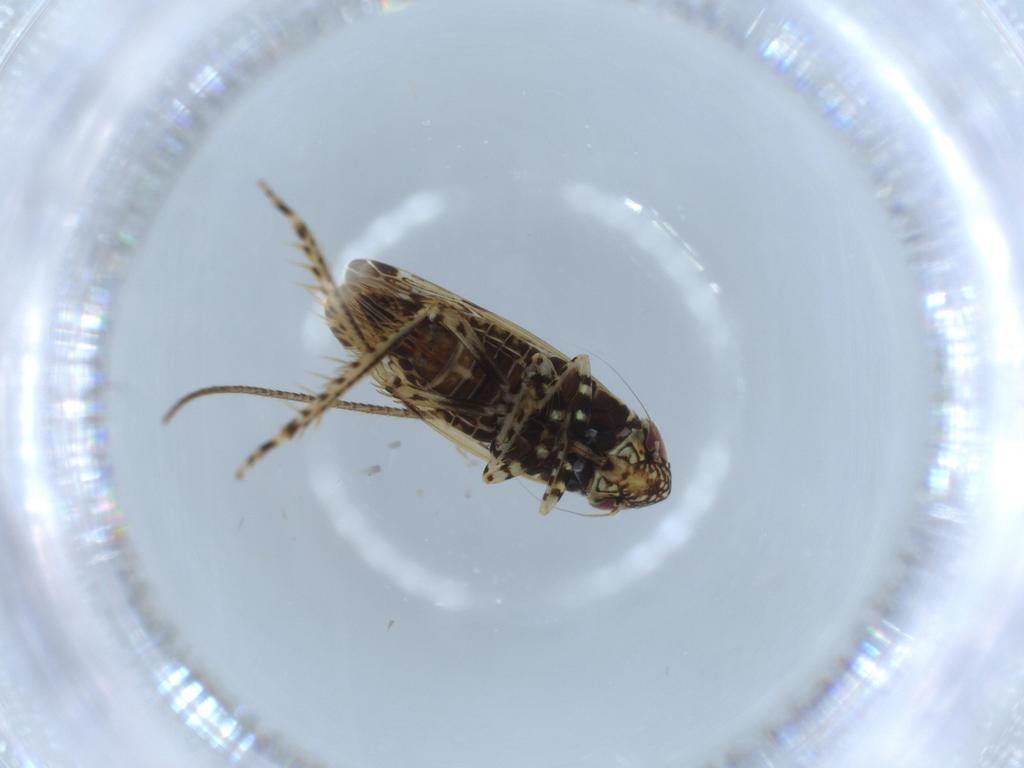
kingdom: Animalia
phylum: Arthropoda
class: Insecta
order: Hemiptera
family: Cicadellidae
